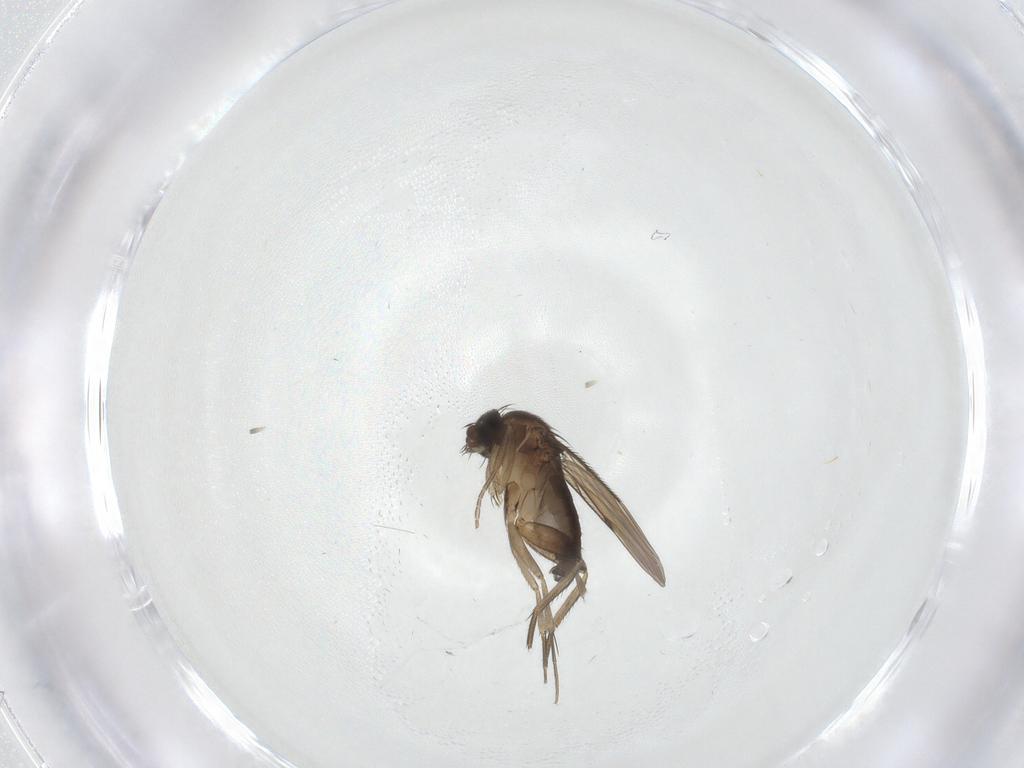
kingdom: Animalia
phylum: Arthropoda
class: Insecta
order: Diptera
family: Phoridae
